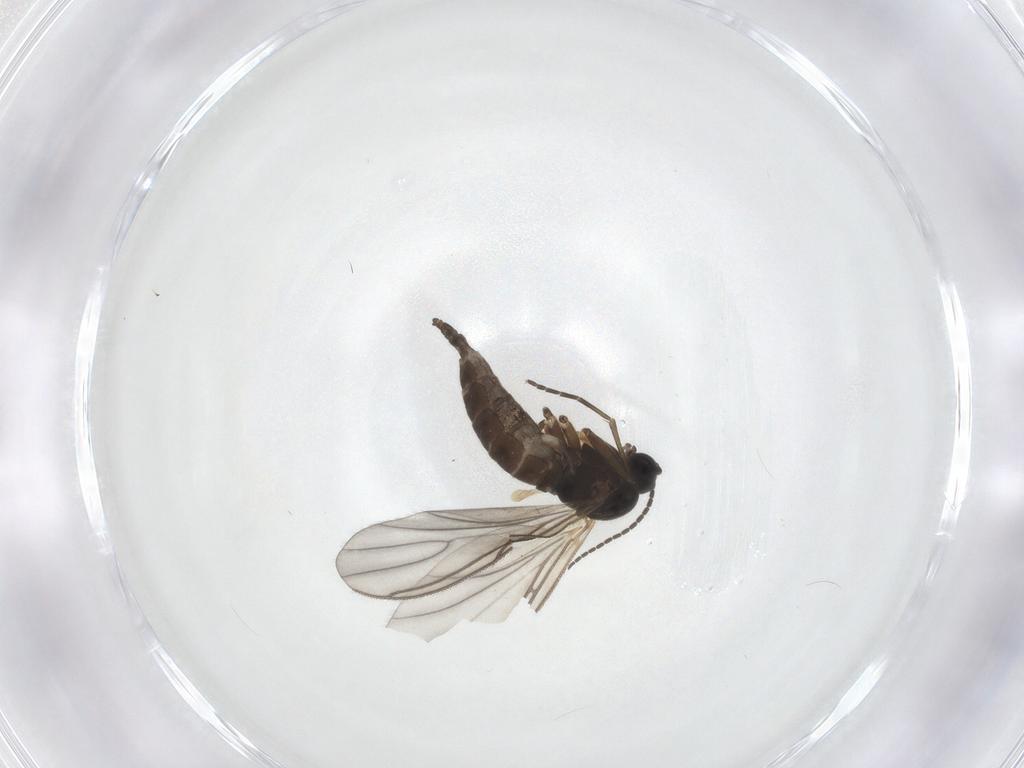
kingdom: Animalia
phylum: Arthropoda
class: Insecta
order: Diptera
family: Sciaridae
